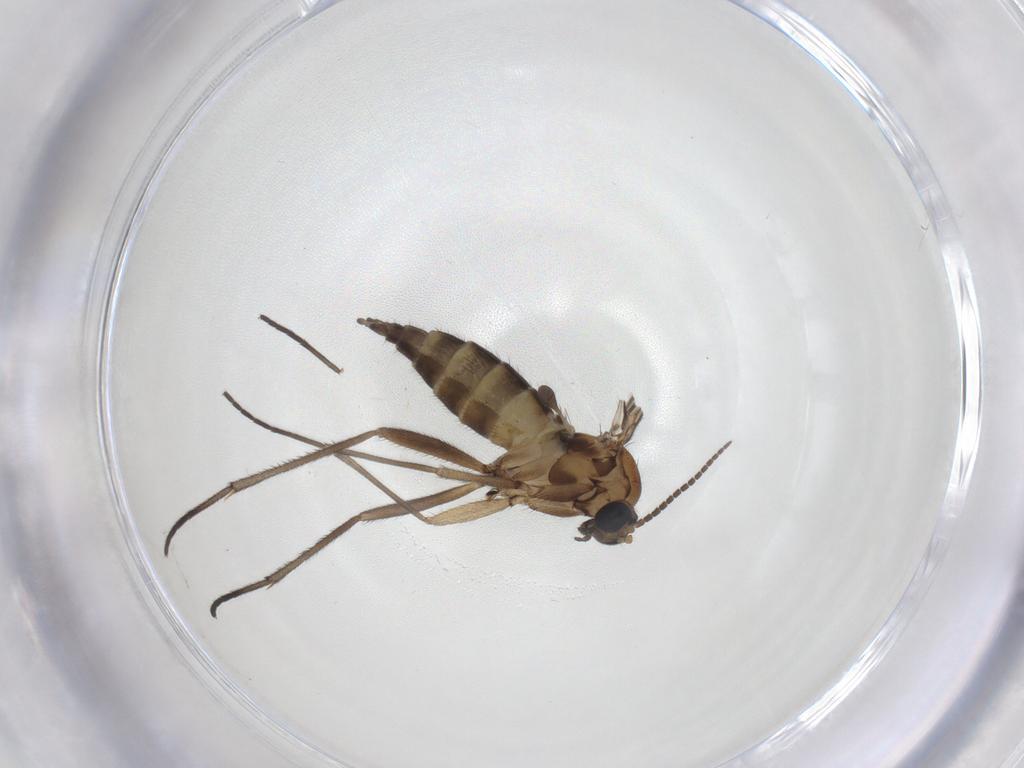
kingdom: Animalia
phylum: Arthropoda
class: Insecta
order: Diptera
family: Sciaridae
